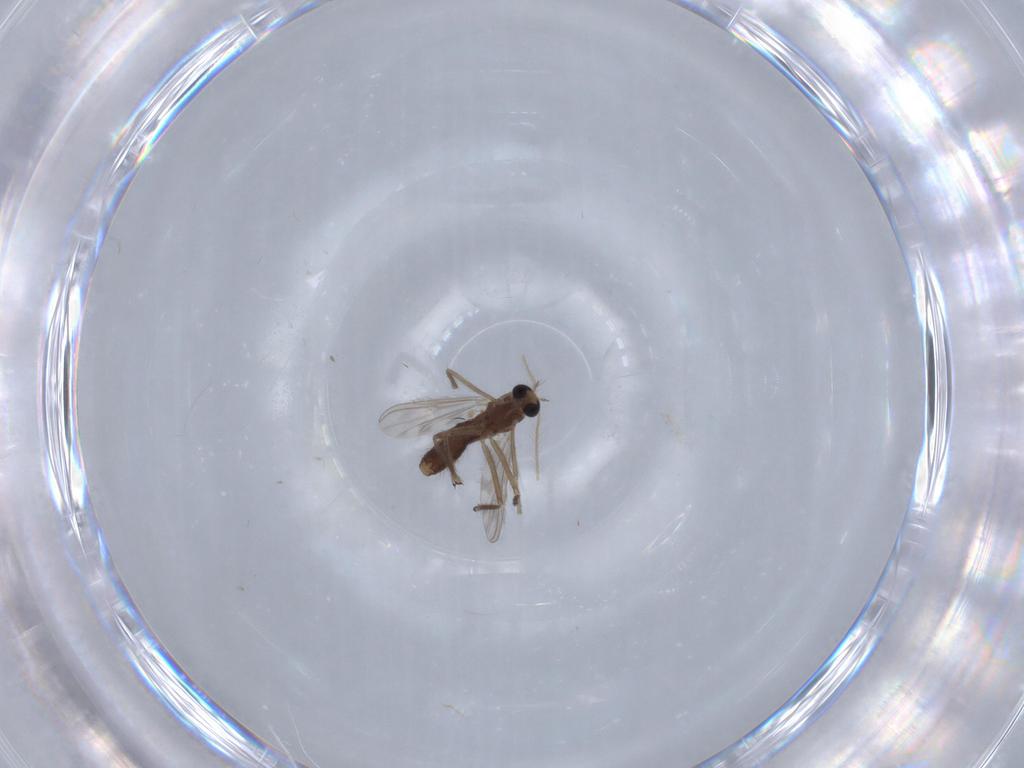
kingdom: Animalia
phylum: Arthropoda
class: Insecta
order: Diptera
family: Chironomidae
